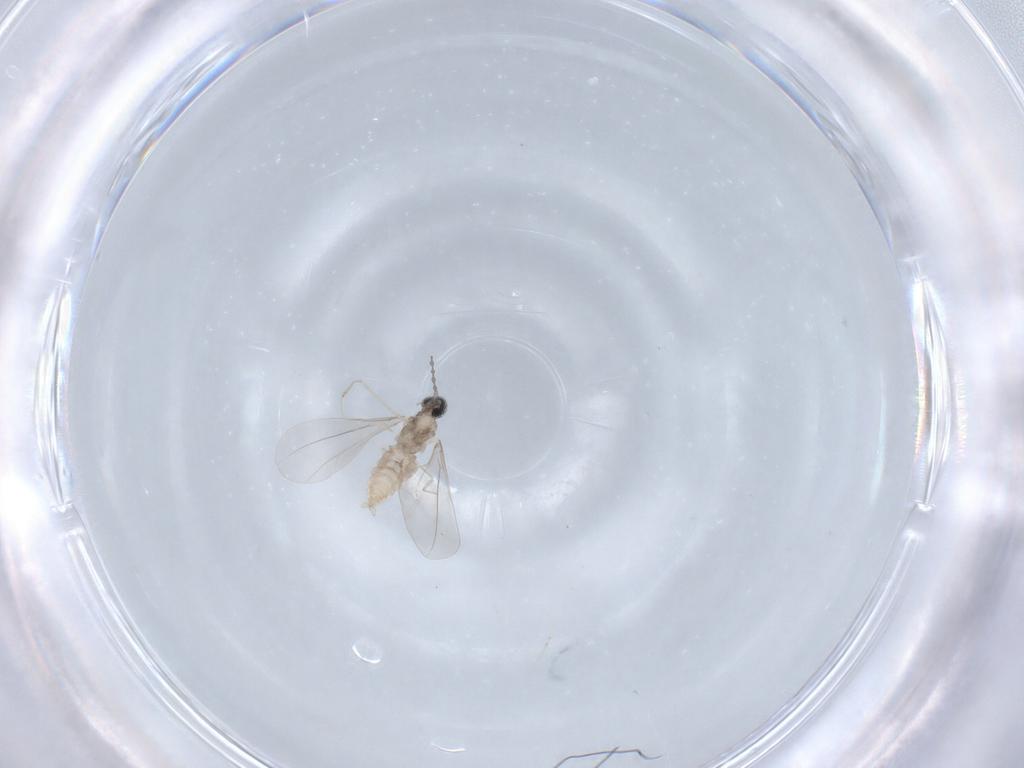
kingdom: Animalia
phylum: Arthropoda
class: Insecta
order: Diptera
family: Cecidomyiidae
